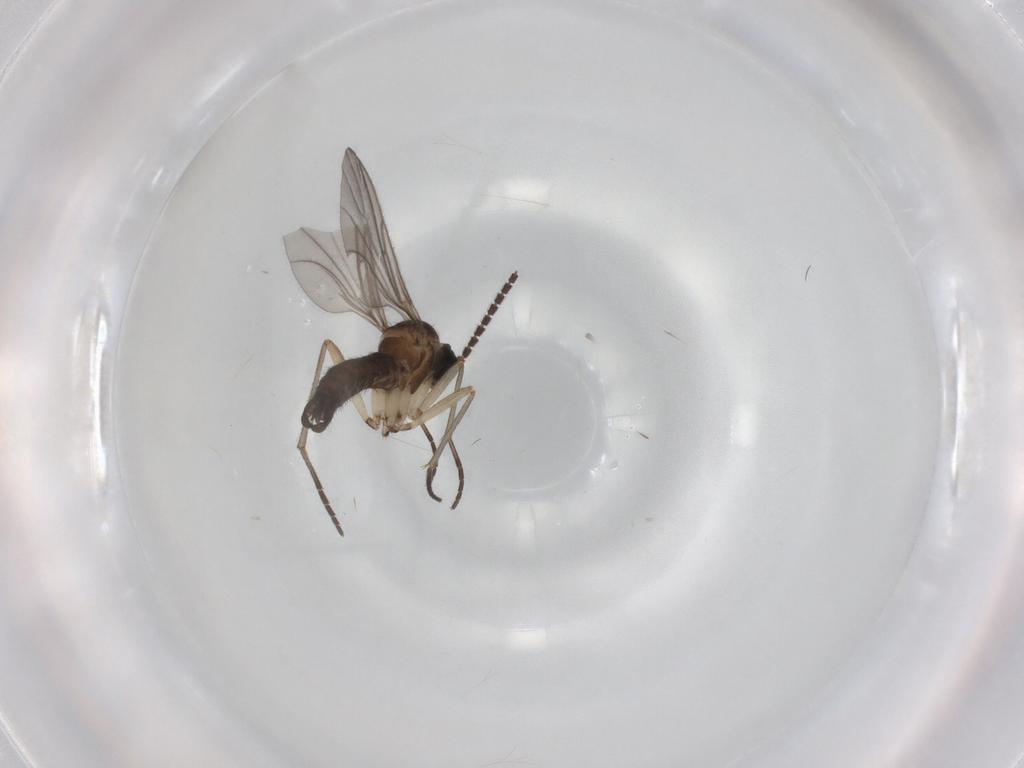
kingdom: Animalia
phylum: Arthropoda
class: Insecta
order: Diptera
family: Sciaridae
